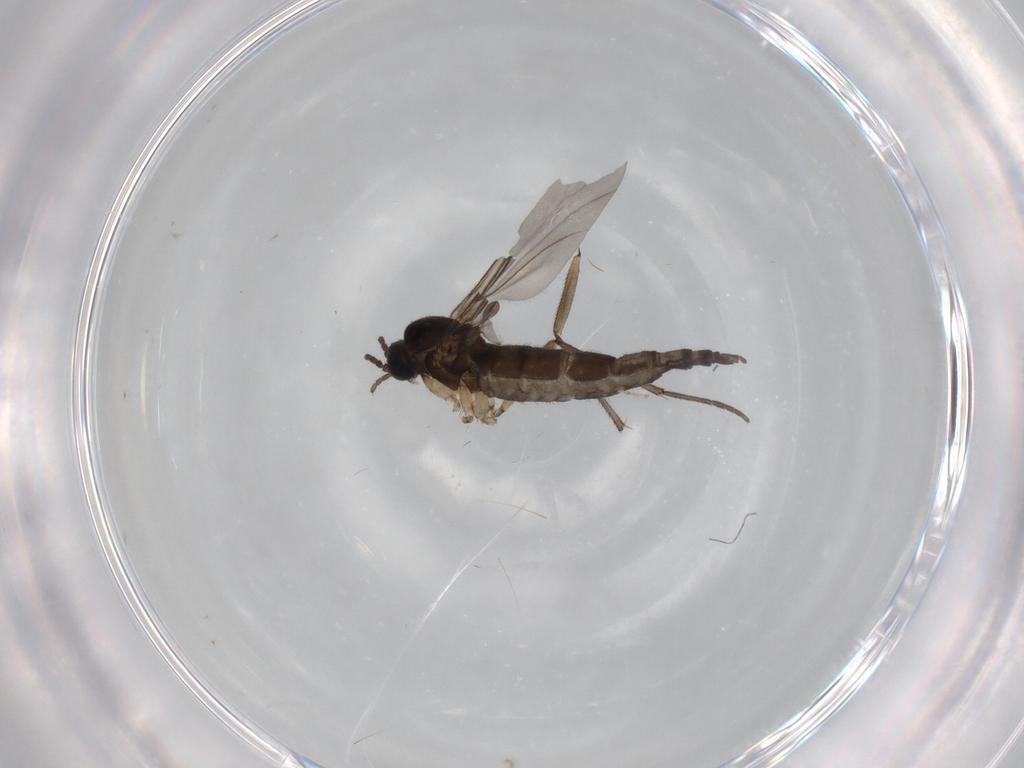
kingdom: Animalia
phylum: Arthropoda
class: Insecta
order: Diptera
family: Sciaridae
